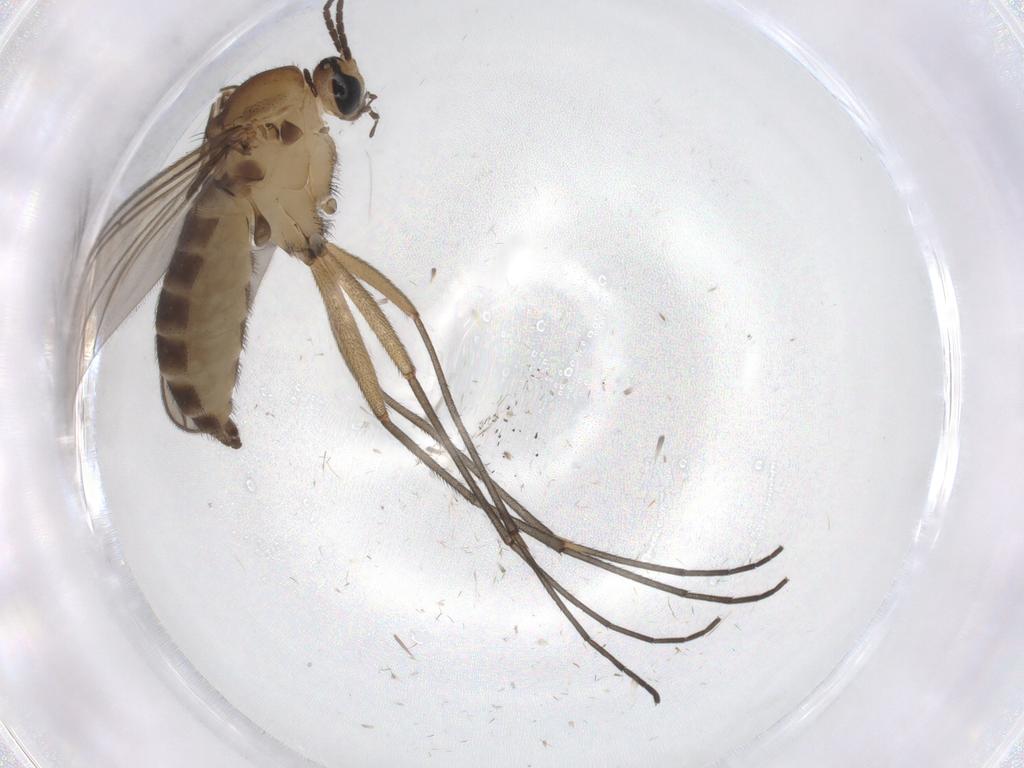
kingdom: Animalia
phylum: Arthropoda
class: Insecta
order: Diptera
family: Sciaridae
